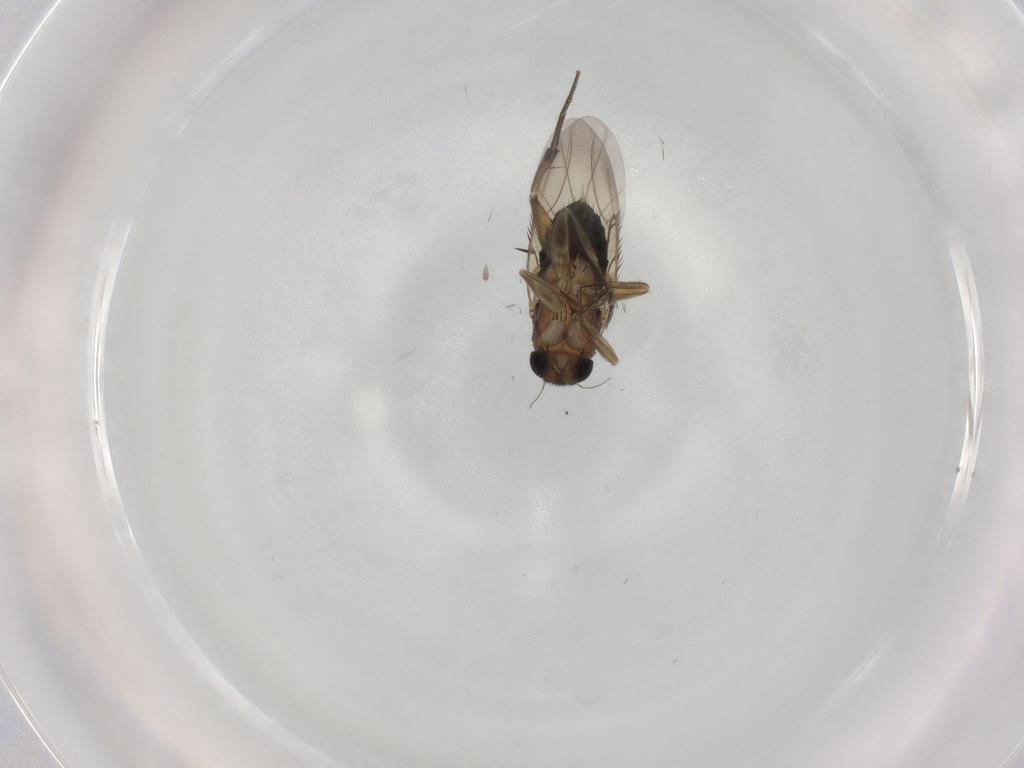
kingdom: Animalia
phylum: Arthropoda
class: Insecta
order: Diptera
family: Bibionidae
